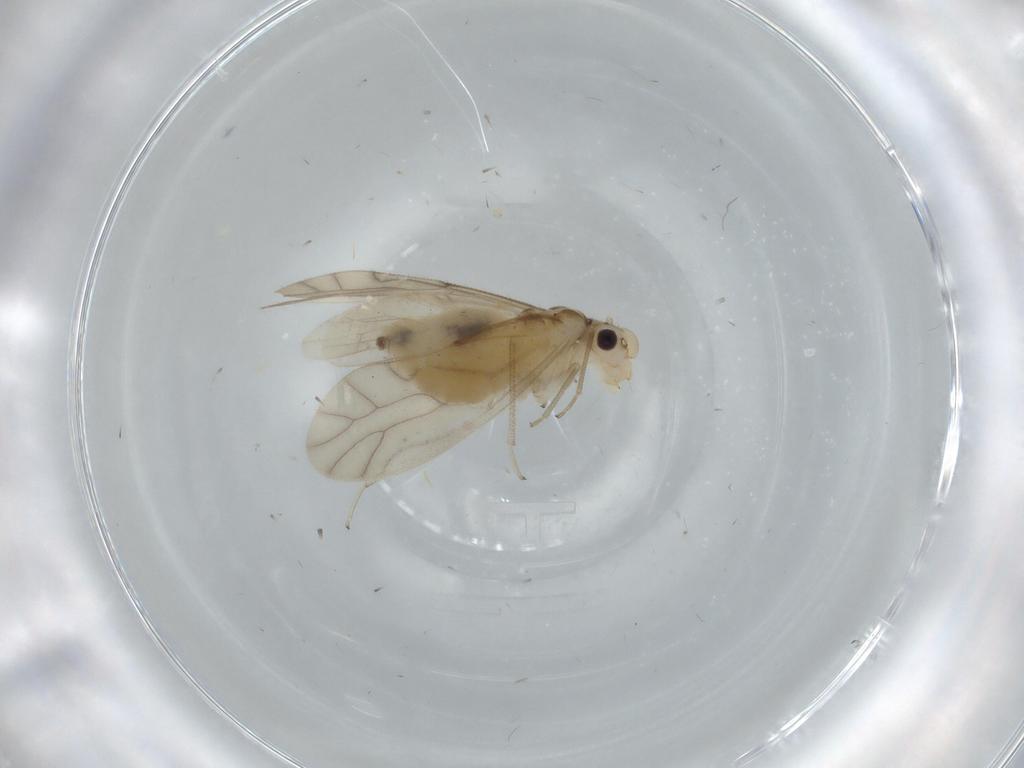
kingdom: Animalia
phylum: Arthropoda
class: Insecta
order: Psocodea
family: Caeciliusidae
